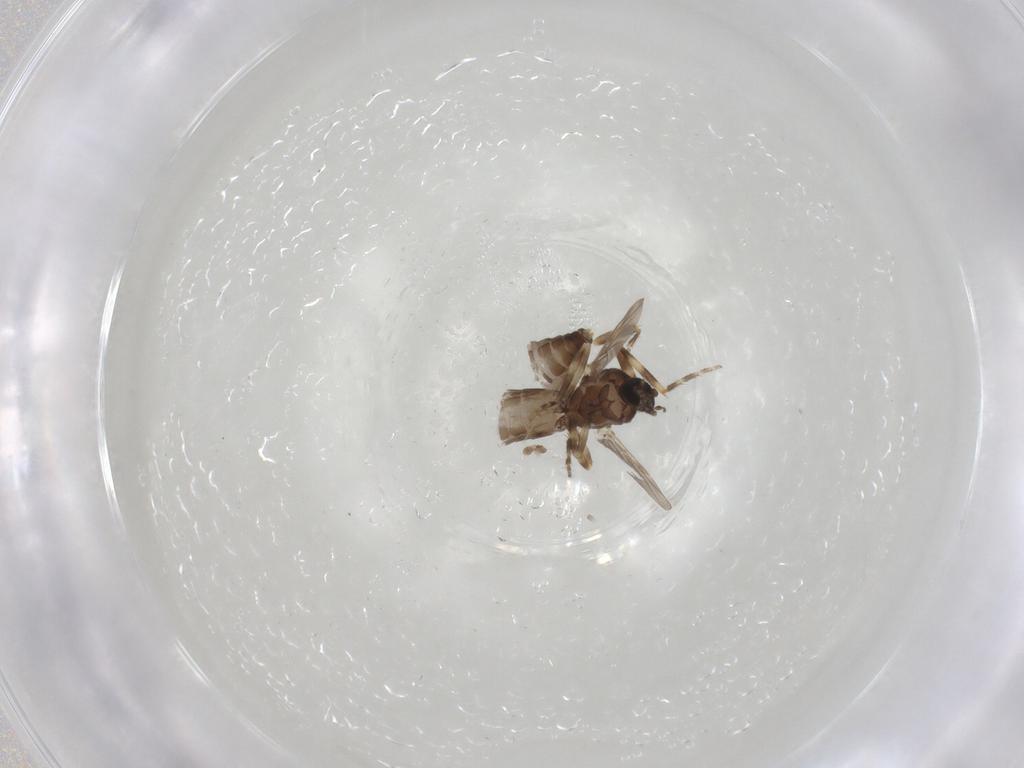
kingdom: Animalia
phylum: Arthropoda
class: Insecta
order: Diptera
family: Ceratopogonidae
